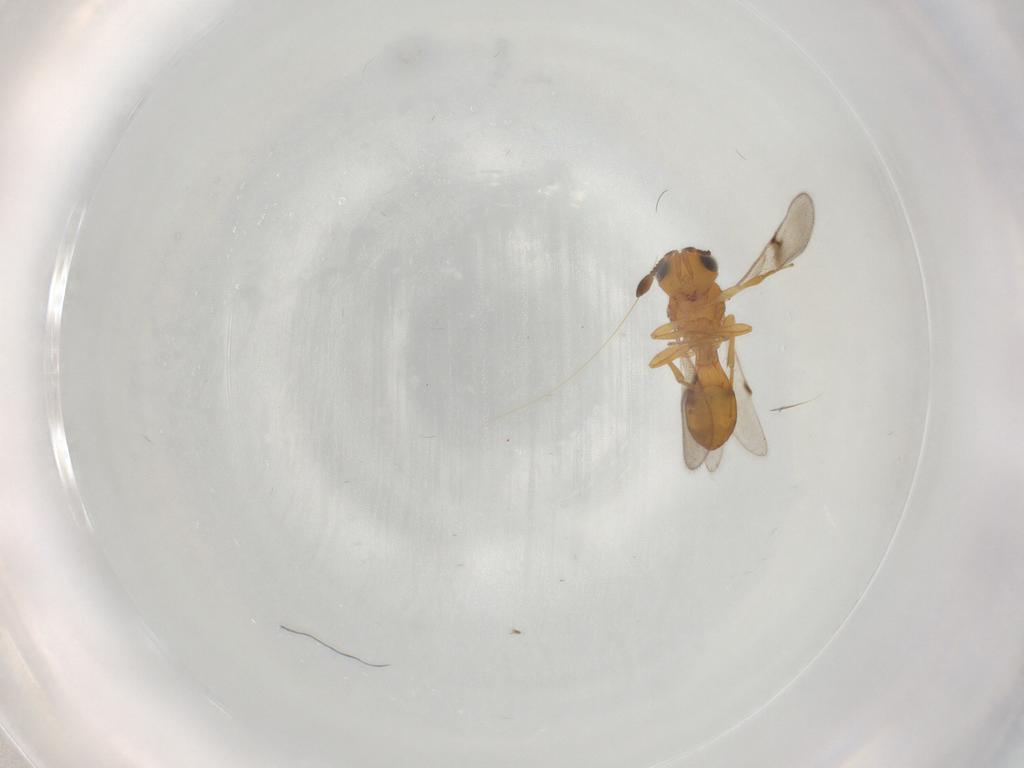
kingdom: Animalia
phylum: Arthropoda
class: Insecta
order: Hymenoptera
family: Scelionidae
